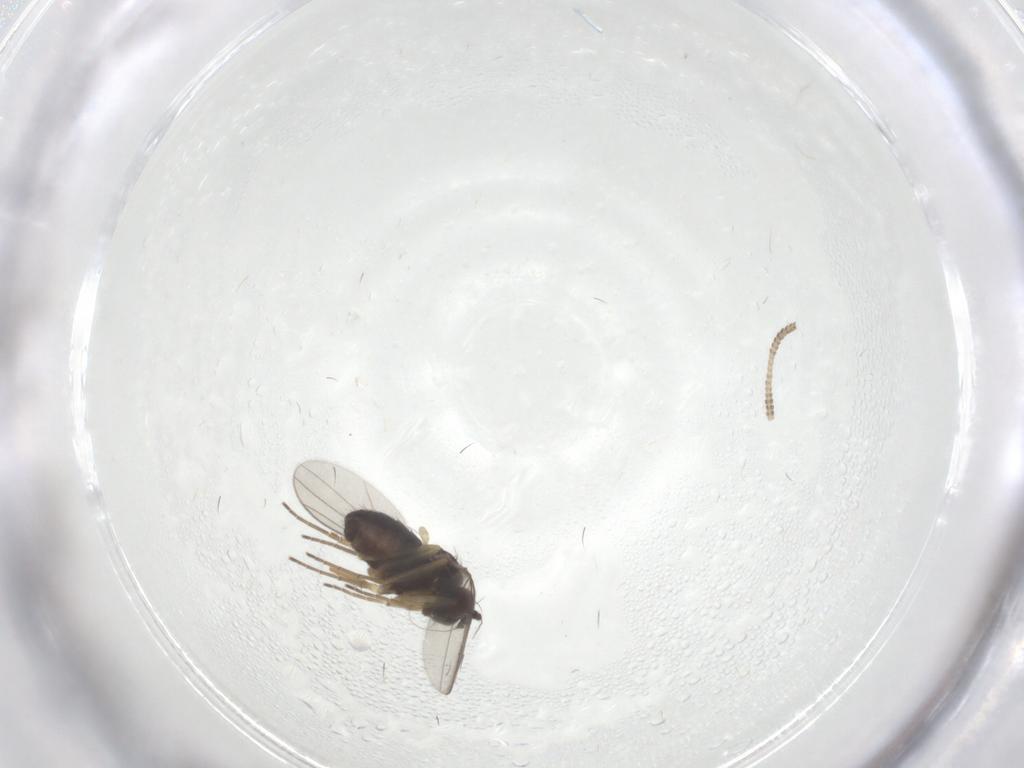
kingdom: Animalia
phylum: Arthropoda
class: Insecta
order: Diptera
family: Dolichopodidae
